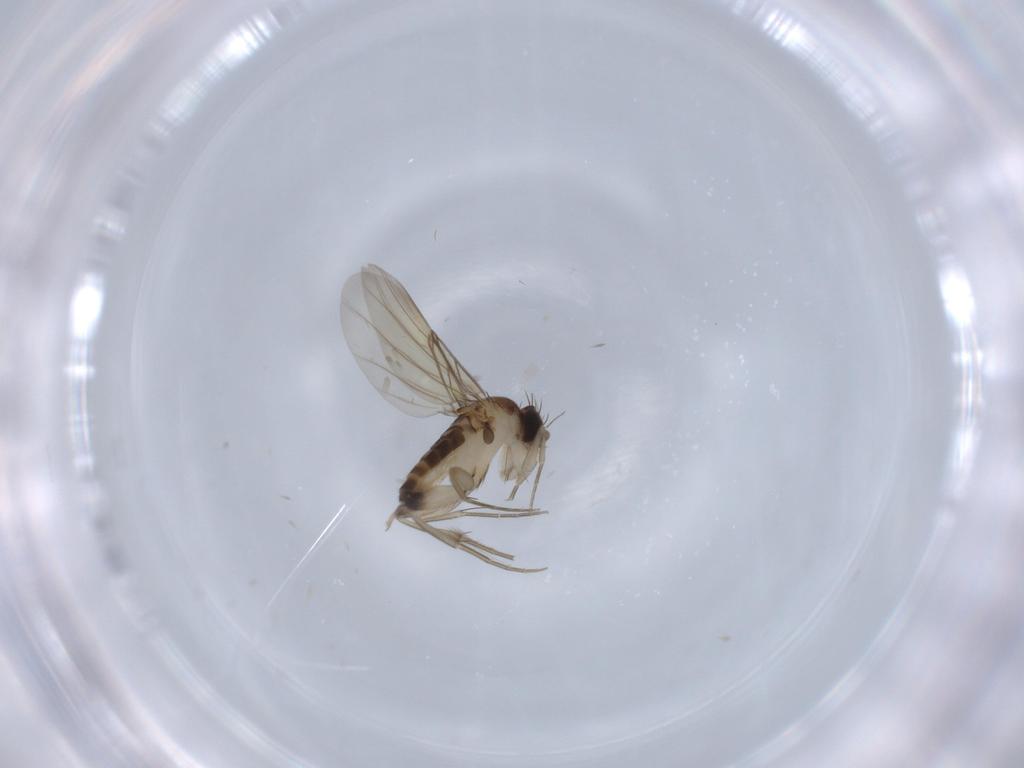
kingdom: Animalia
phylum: Arthropoda
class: Insecta
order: Diptera
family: Phoridae
